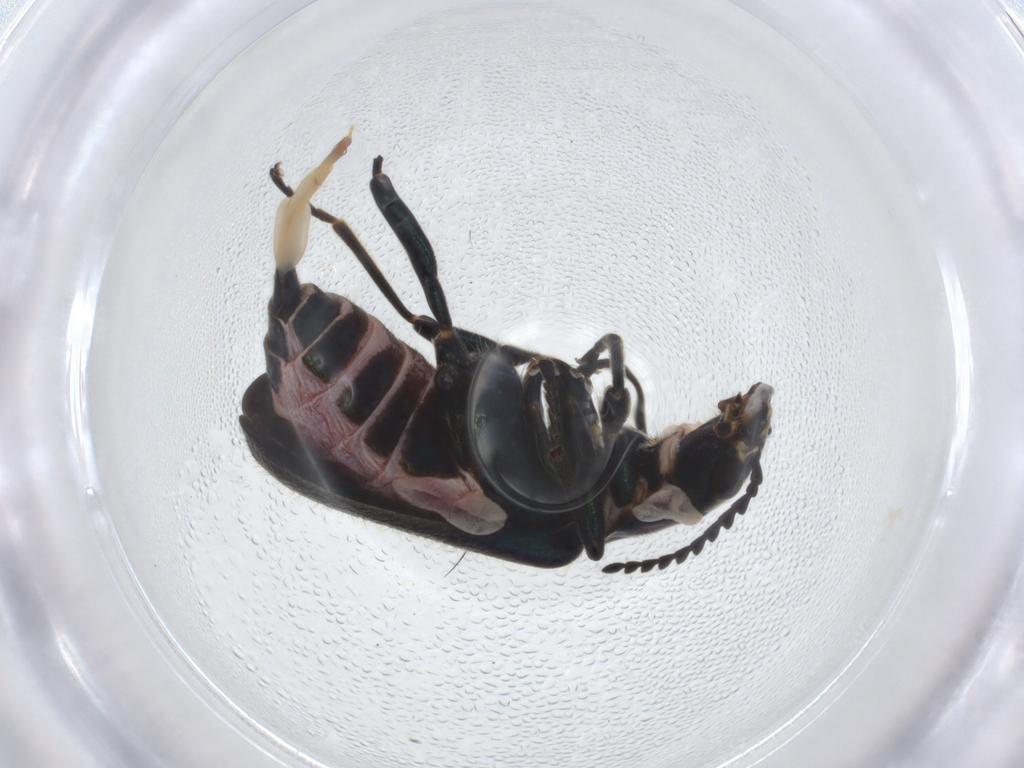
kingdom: Animalia
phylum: Arthropoda
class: Insecta
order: Coleoptera
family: Melyridae
